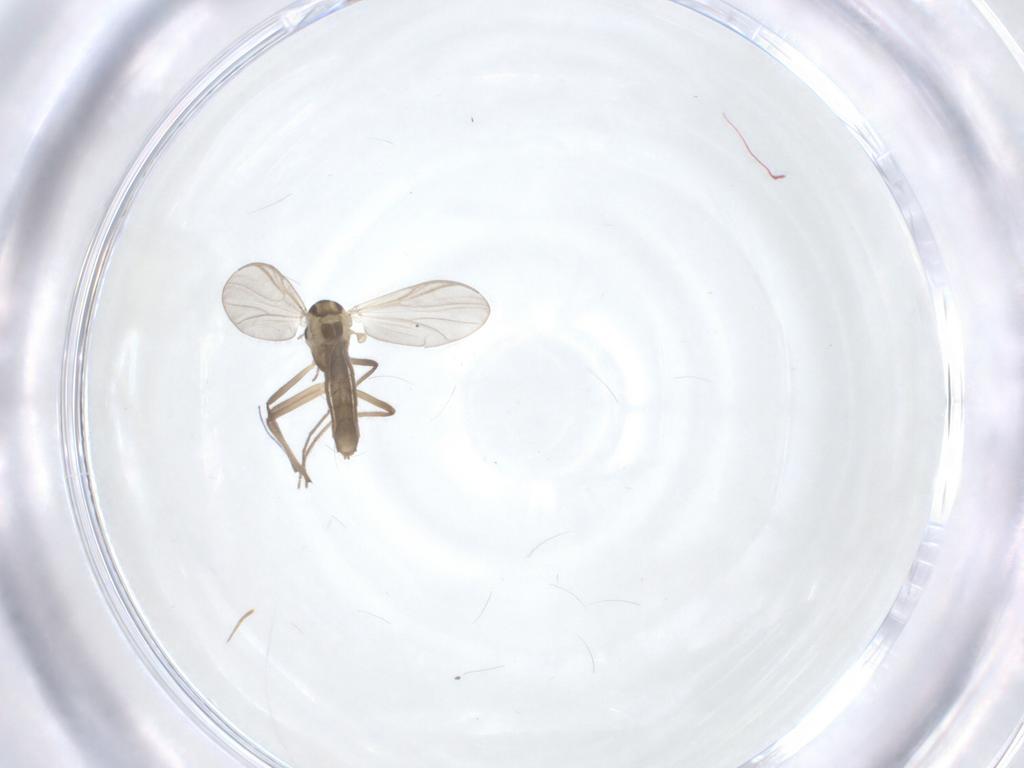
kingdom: Animalia
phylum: Arthropoda
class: Insecta
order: Diptera
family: Chironomidae
